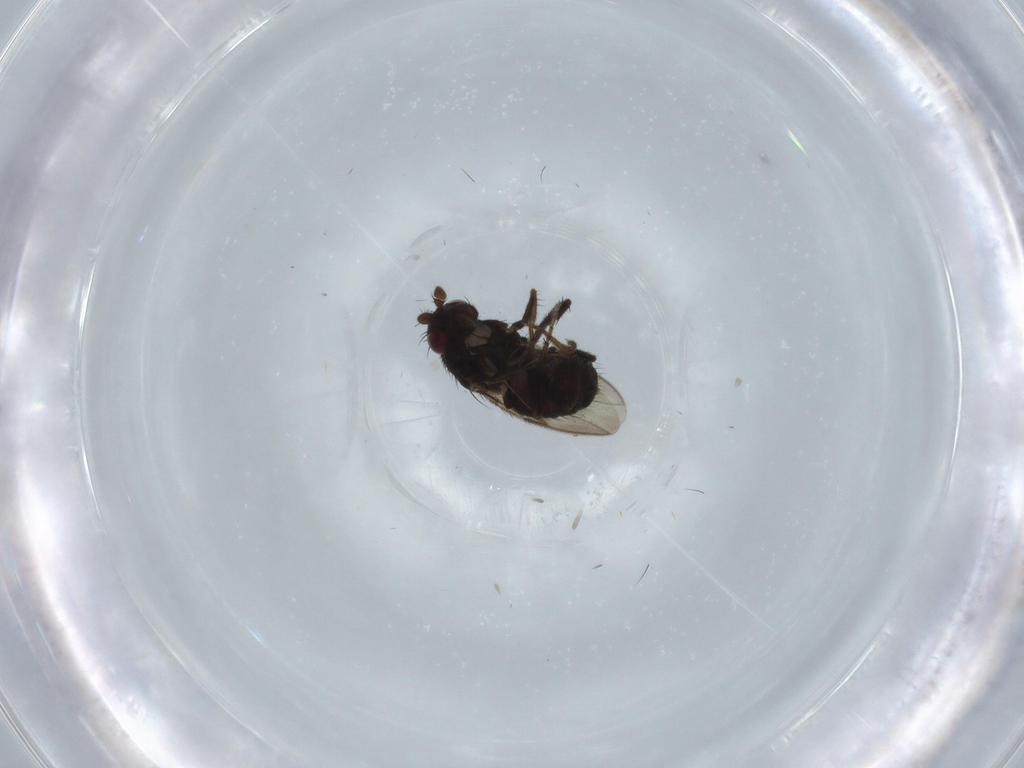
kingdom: Animalia
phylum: Arthropoda
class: Insecta
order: Diptera
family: Sphaeroceridae
